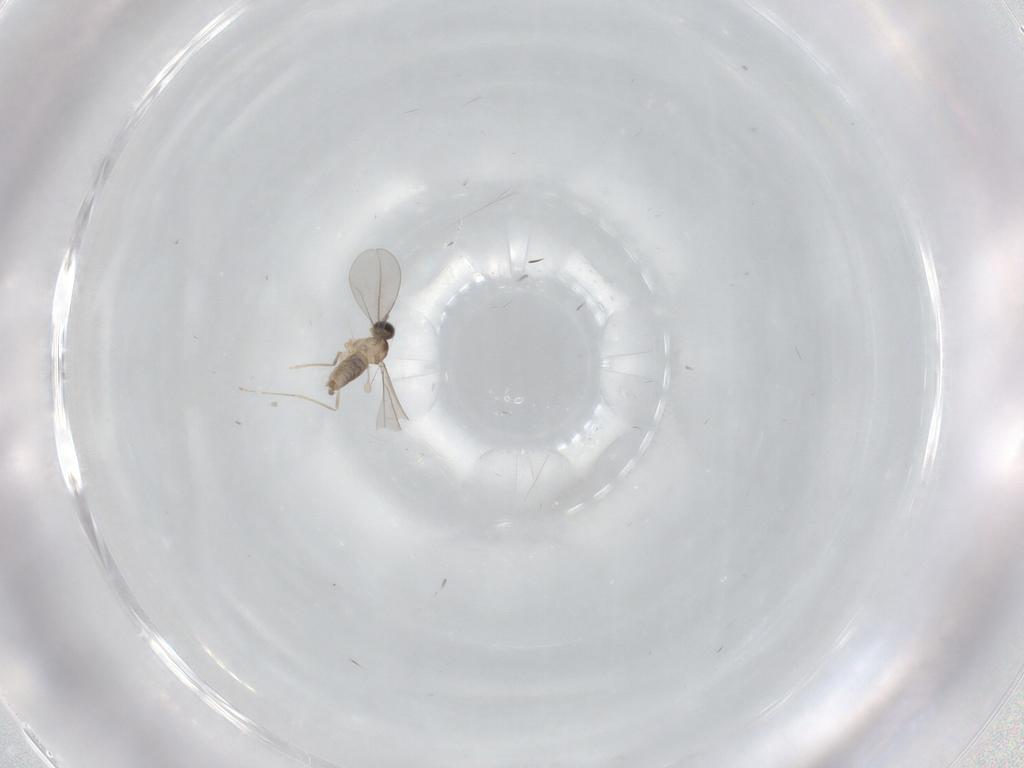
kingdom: Animalia
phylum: Arthropoda
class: Insecta
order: Diptera
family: Cecidomyiidae
